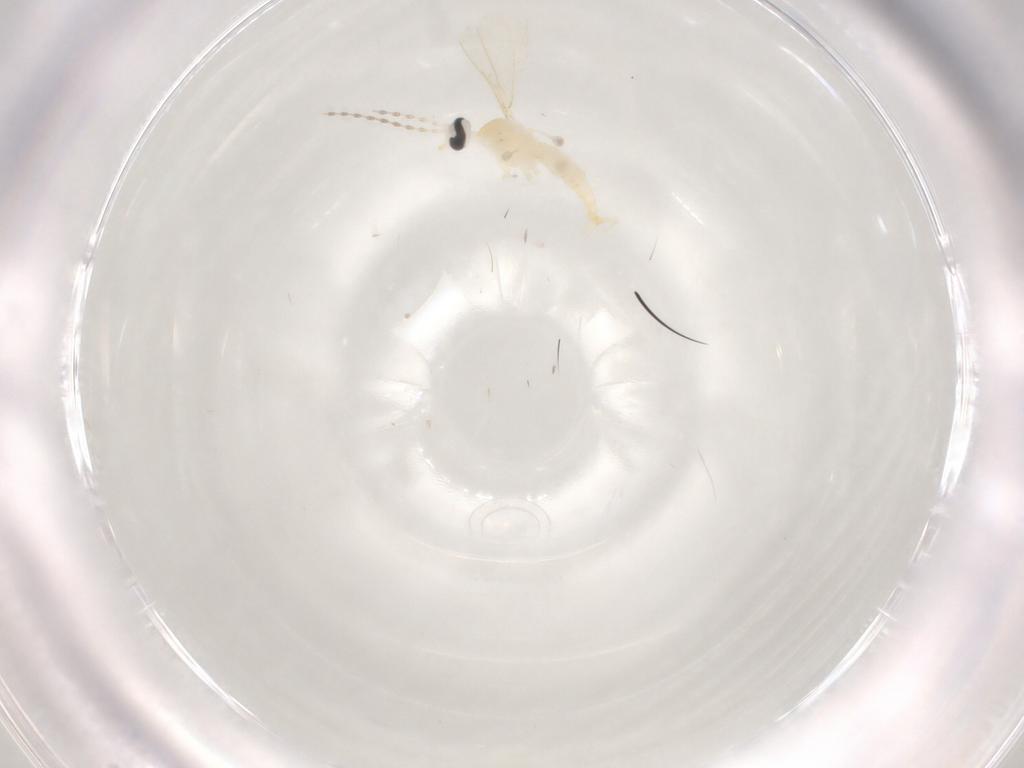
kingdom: Animalia
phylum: Arthropoda
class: Insecta
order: Diptera
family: Cecidomyiidae
